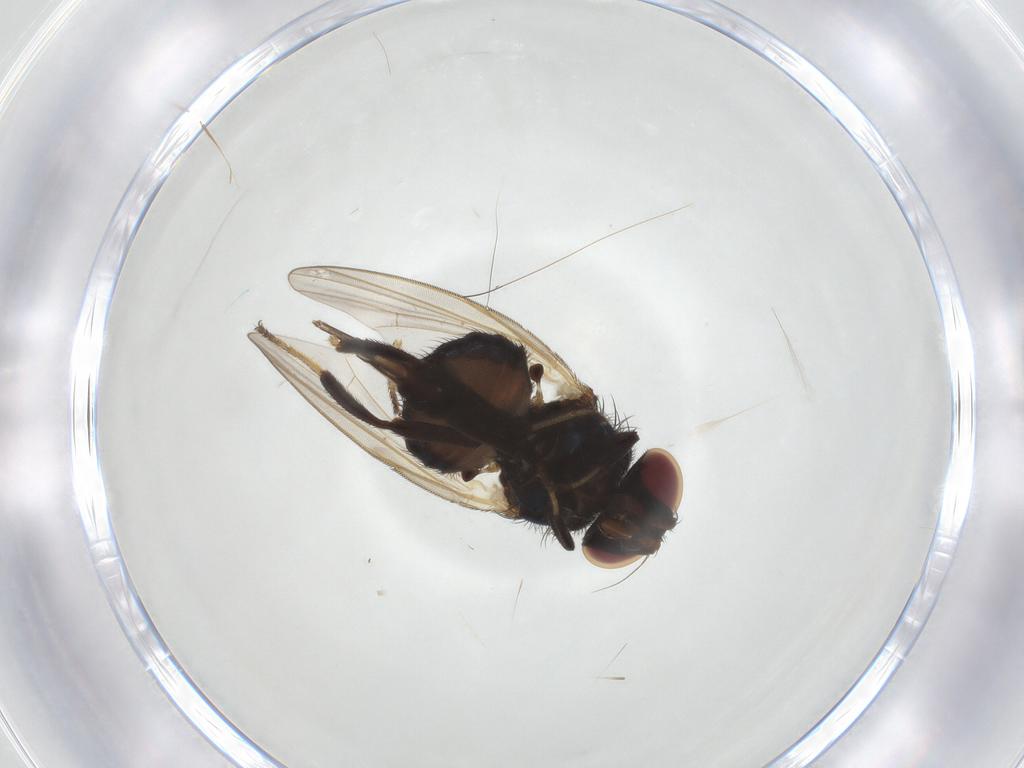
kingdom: Animalia
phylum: Arthropoda
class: Insecta
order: Diptera
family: Lonchaeidae
